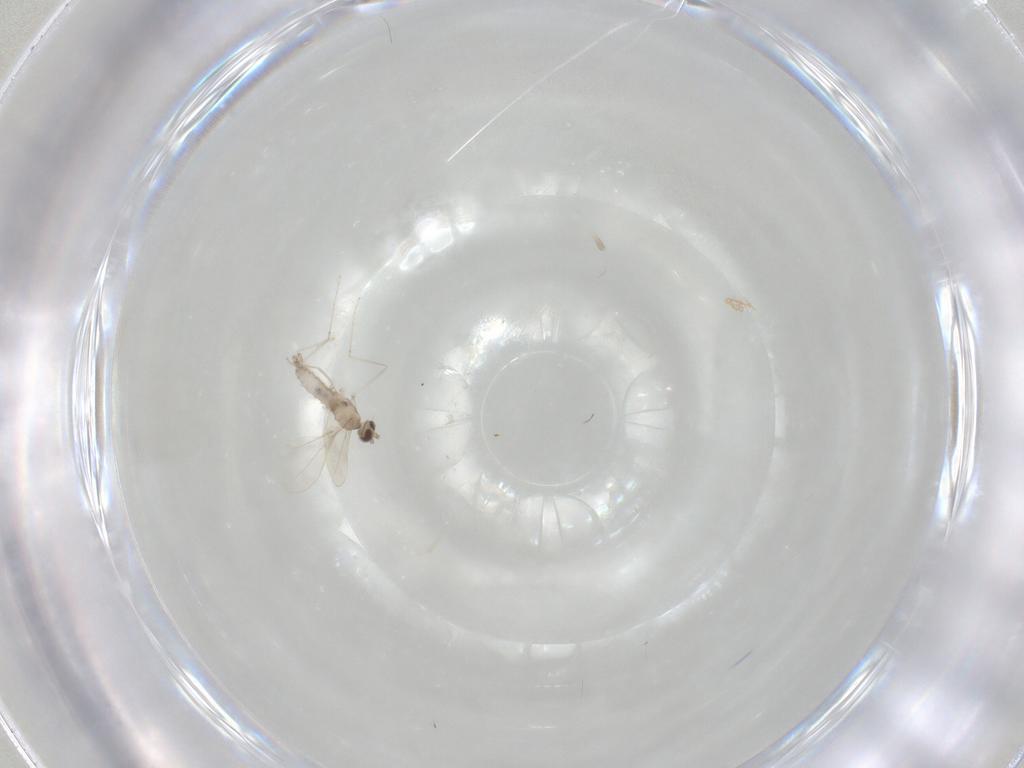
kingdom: Animalia
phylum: Arthropoda
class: Insecta
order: Diptera
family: Cecidomyiidae
